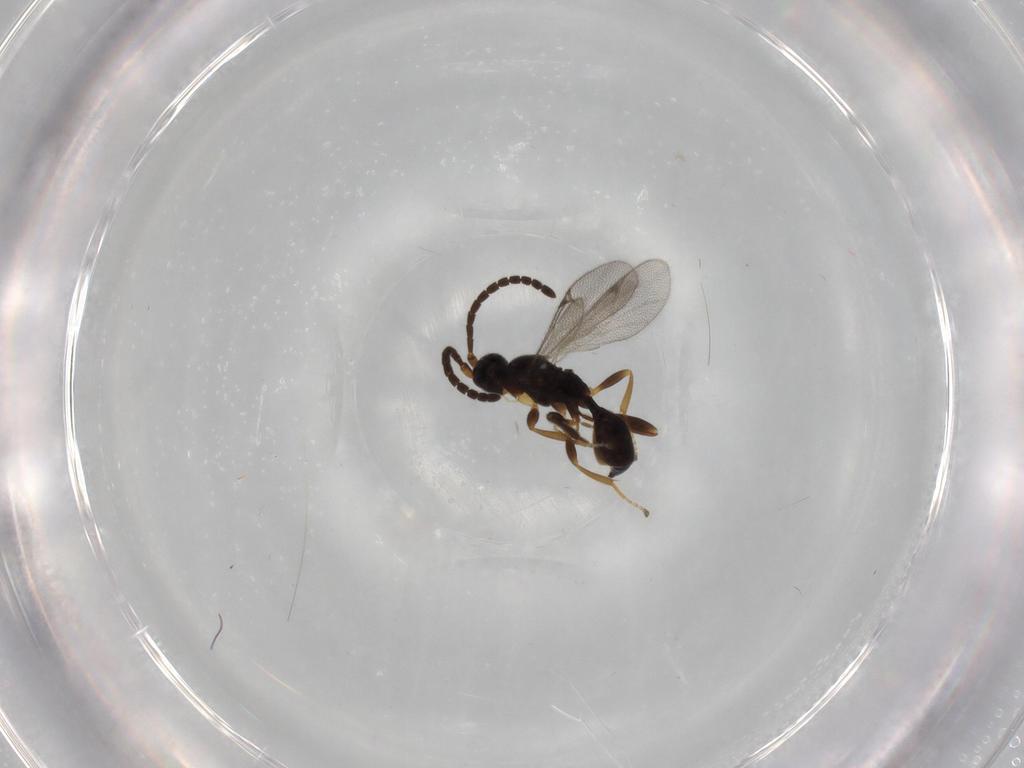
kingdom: Animalia
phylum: Arthropoda
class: Insecta
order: Hymenoptera
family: Proctotrupidae
